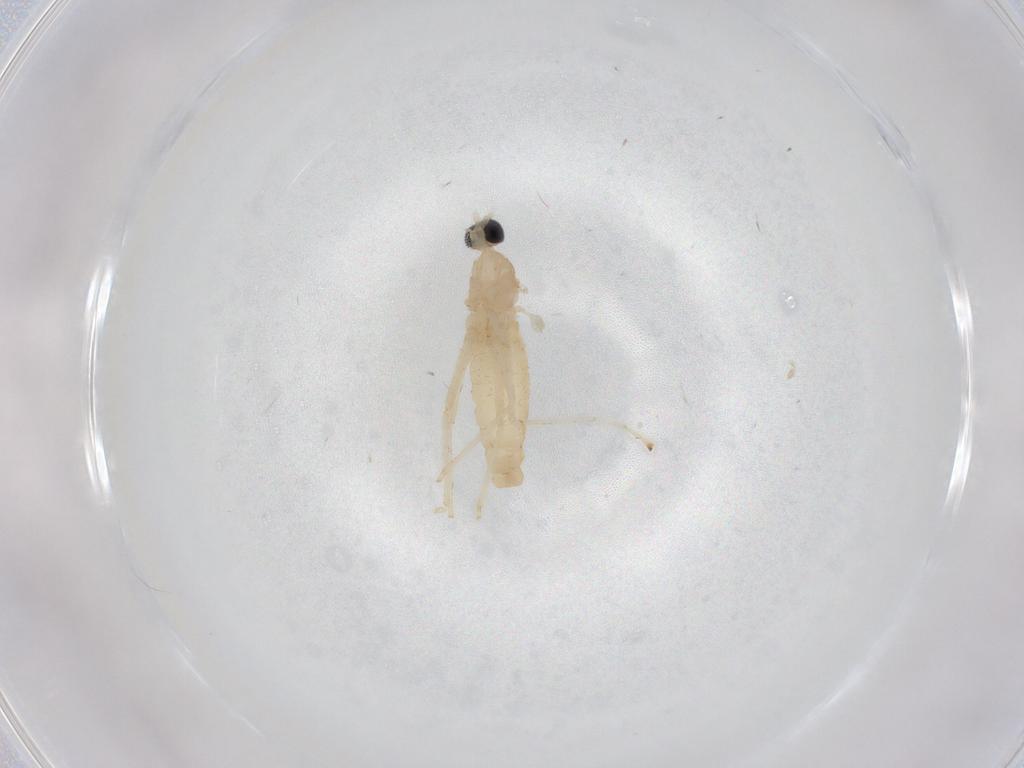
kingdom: Animalia
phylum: Arthropoda
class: Insecta
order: Diptera
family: Cecidomyiidae
